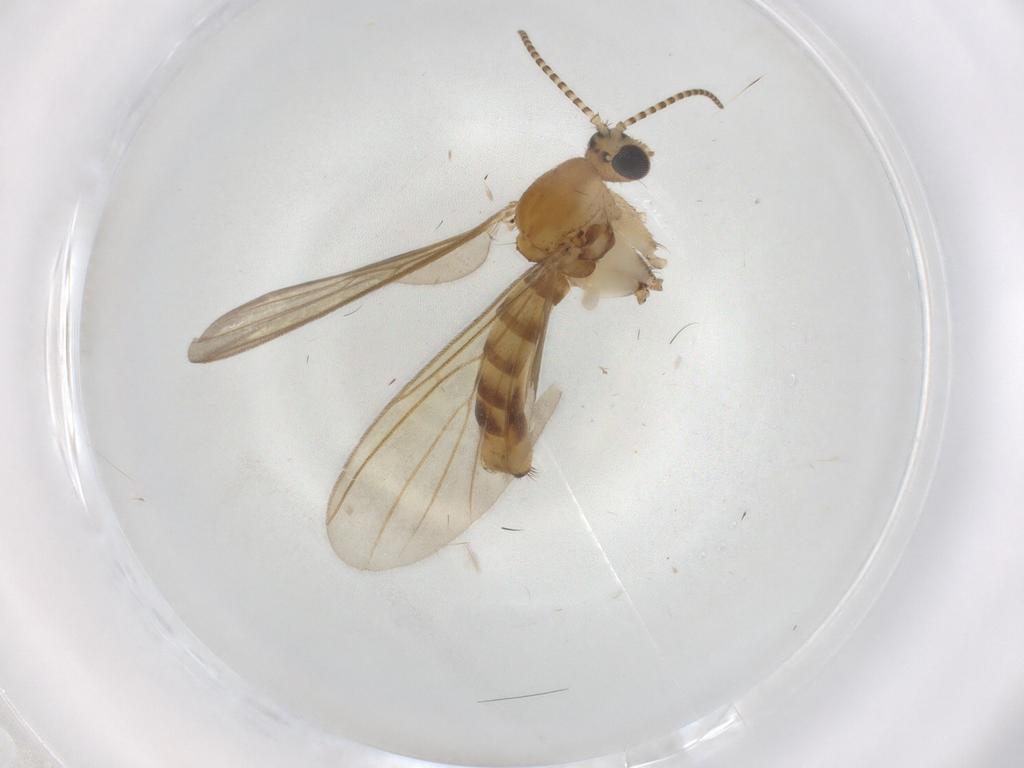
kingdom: Animalia
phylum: Arthropoda
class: Insecta
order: Diptera
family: Mycetophilidae
